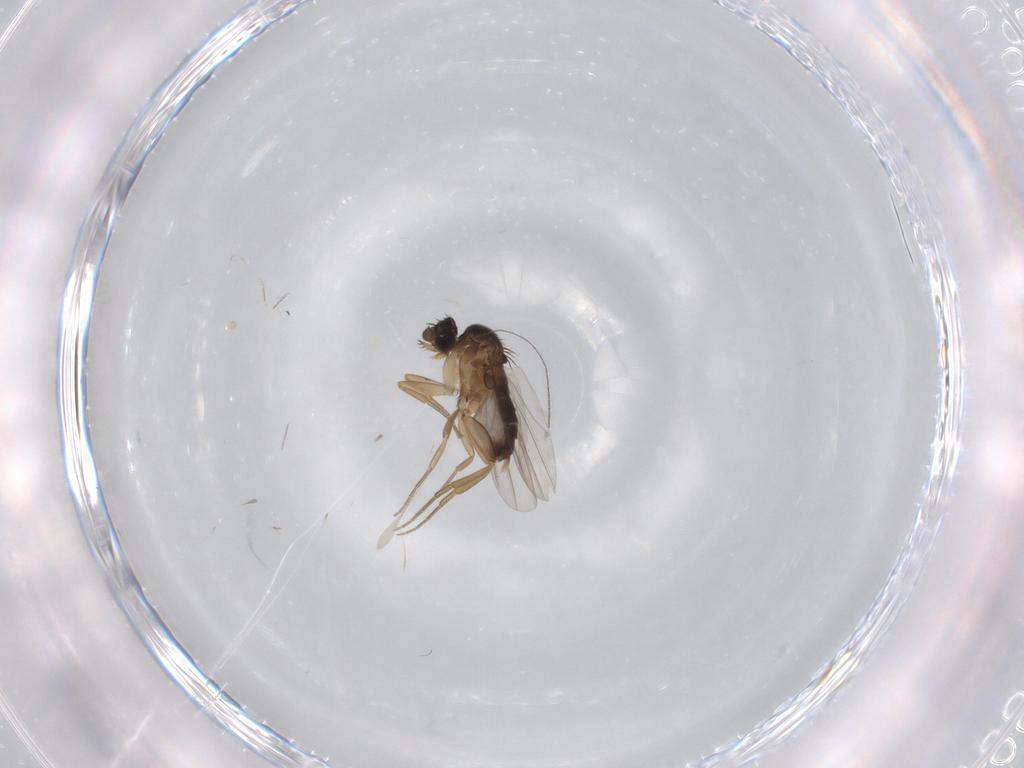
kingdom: Animalia
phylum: Arthropoda
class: Insecta
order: Diptera
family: Phoridae
